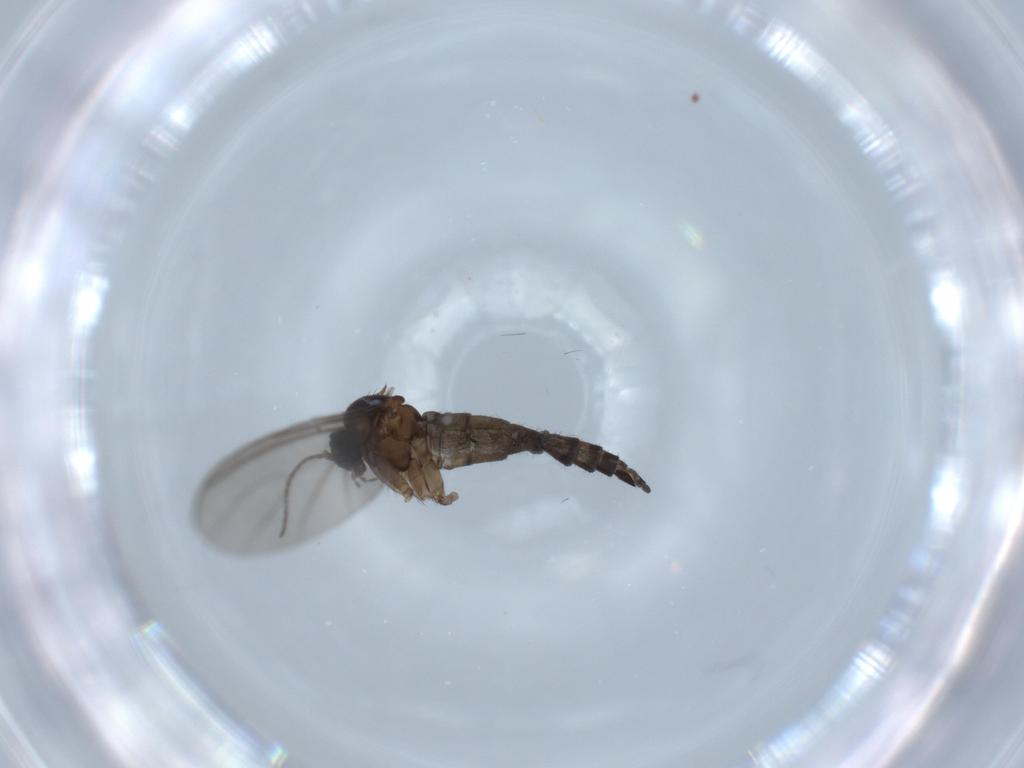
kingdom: Animalia
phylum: Arthropoda
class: Insecta
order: Diptera
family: Sciaridae
